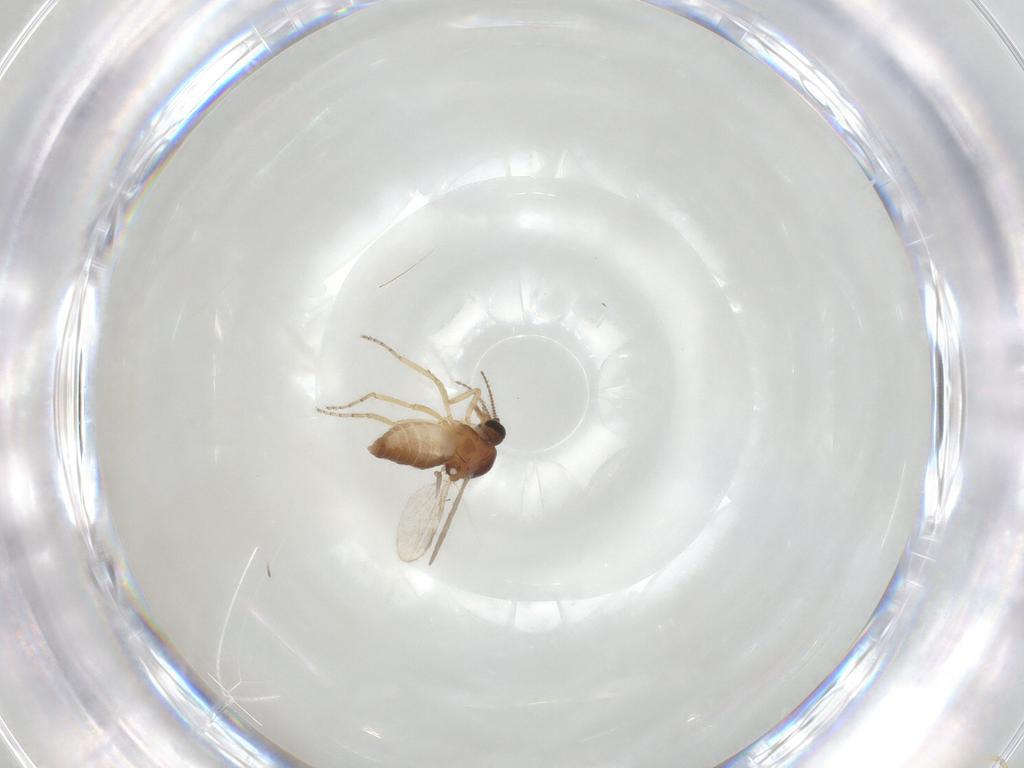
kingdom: Animalia
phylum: Arthropoda
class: Insecta
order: Diptera
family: Ceratopogonidae
